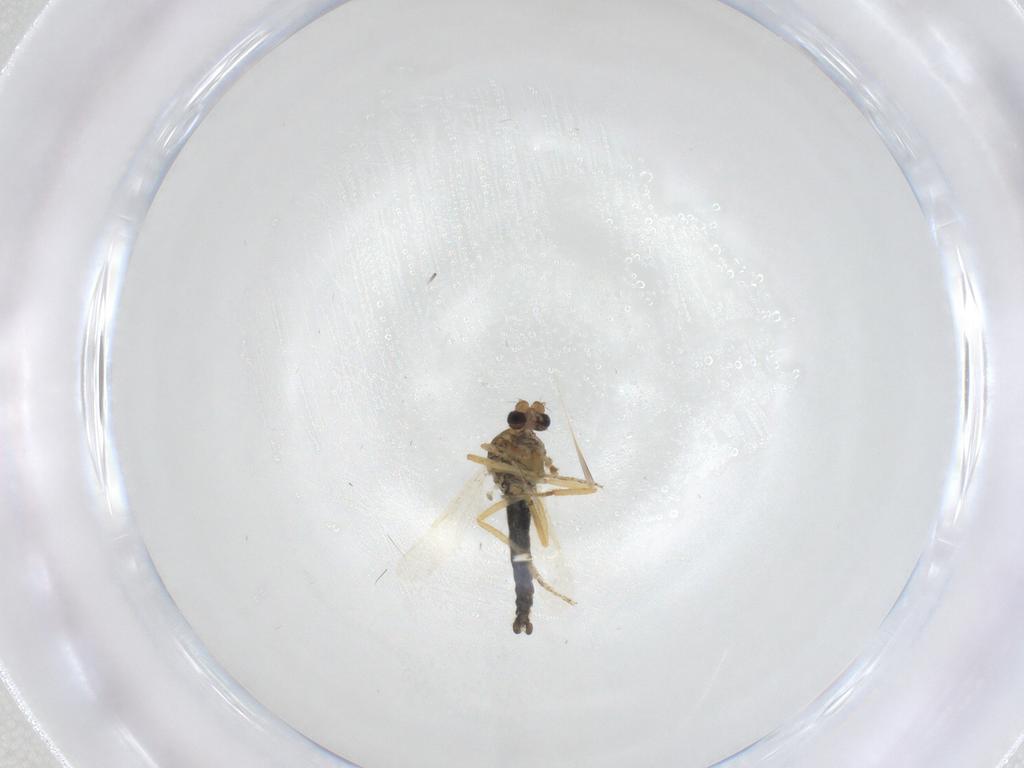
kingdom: Animalia
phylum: Arthropoda
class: Insecta
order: Diptera
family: Ceratopogonidae
